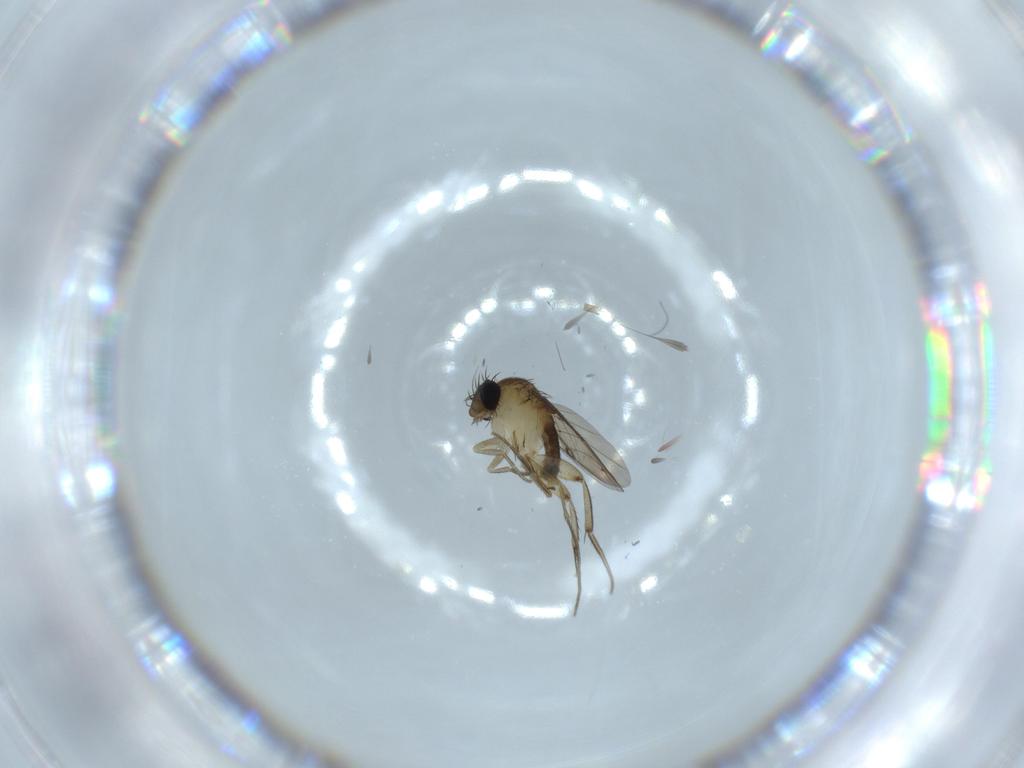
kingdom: Animalia
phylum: Arthropoda
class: Insecta
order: Diptera
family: Phoridae
